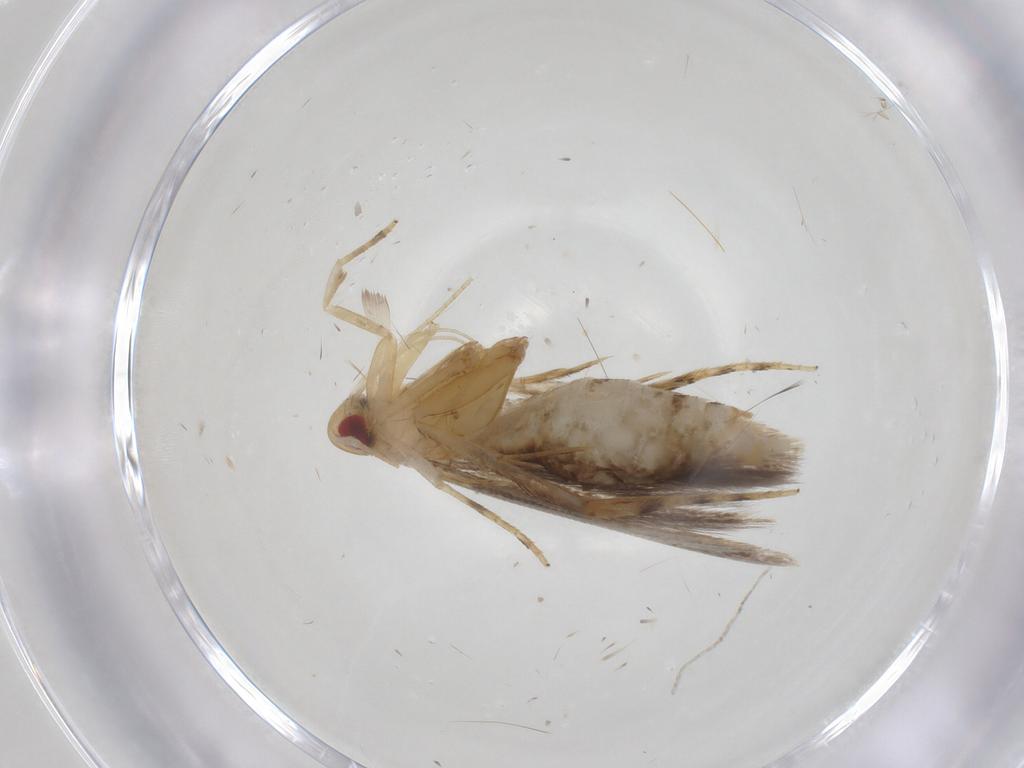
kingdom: Animalia
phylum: Arthropoda
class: Insecta
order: Lepidoptera
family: Cosmopterigidae
